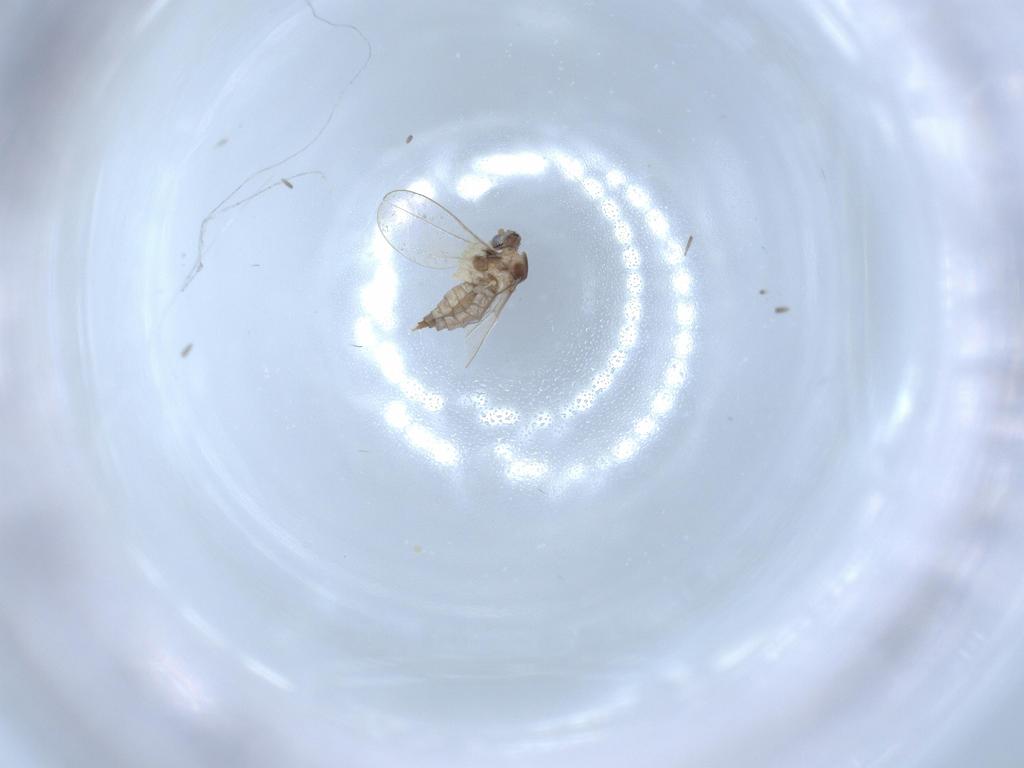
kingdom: Animalia
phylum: Arthropoda
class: Insecta
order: Diptera
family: Sciaridae
